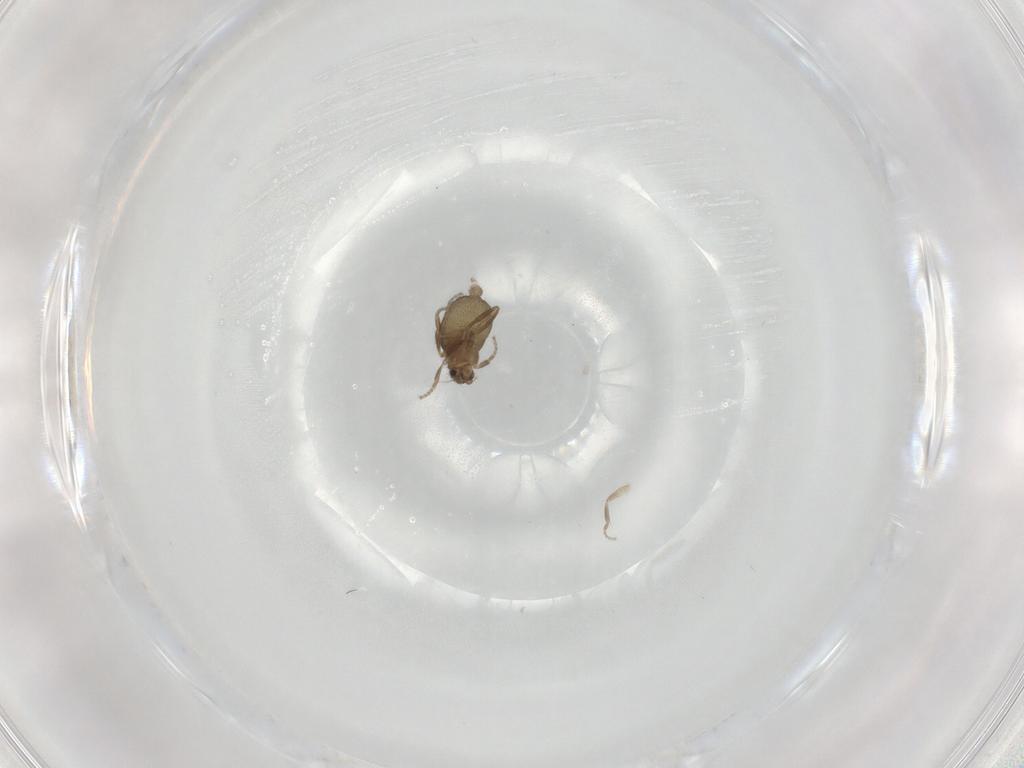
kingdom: Animalia
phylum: Arthropoda
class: Insecta
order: Diptera
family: Phoridae
